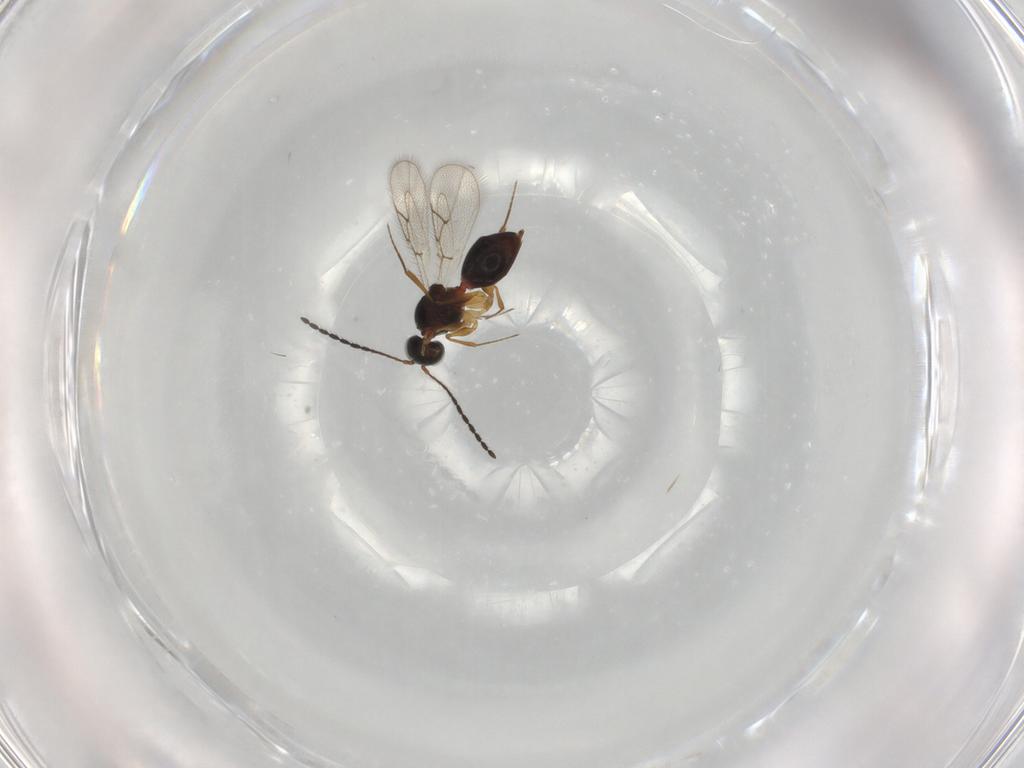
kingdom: Animalia
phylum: Arthropoda
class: Insecta
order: Hymenoptera
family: Figitidae
